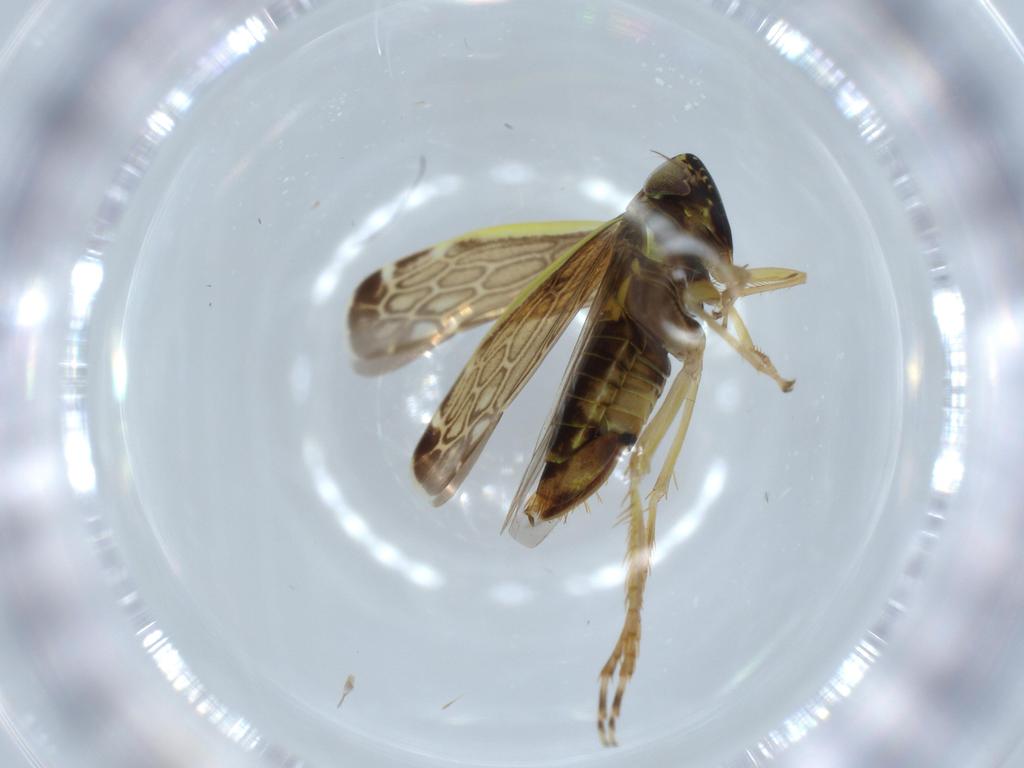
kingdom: Animalia
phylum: Arthropoda
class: Insecta
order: Hemiptera
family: Cicadellidae
